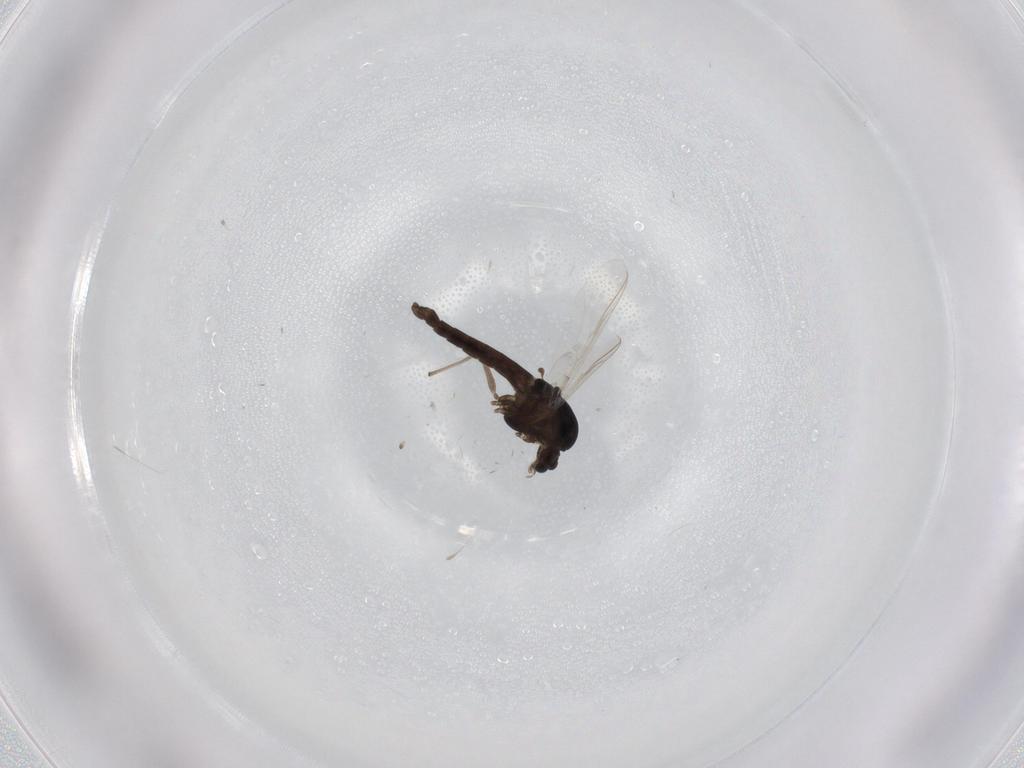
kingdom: Animalia
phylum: Arthropoda
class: Insecta
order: Diptera
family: Chironomidae
